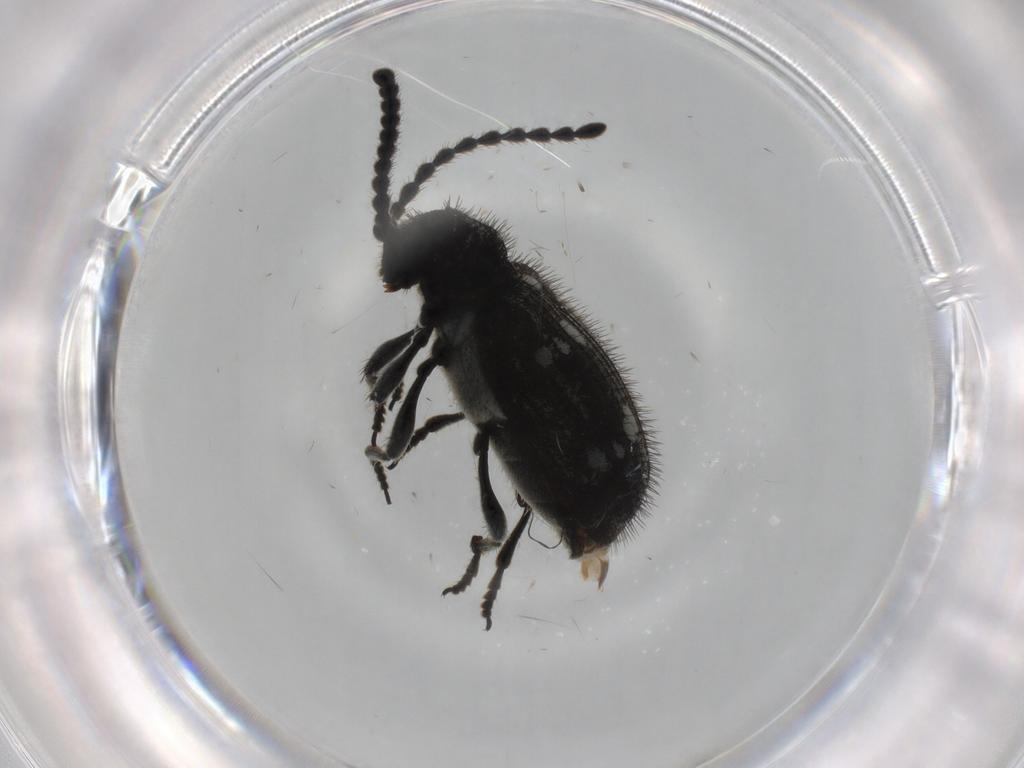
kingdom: Animalia
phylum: Arthropoda
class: Insecta
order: Coleoptera
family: Ptinidae
